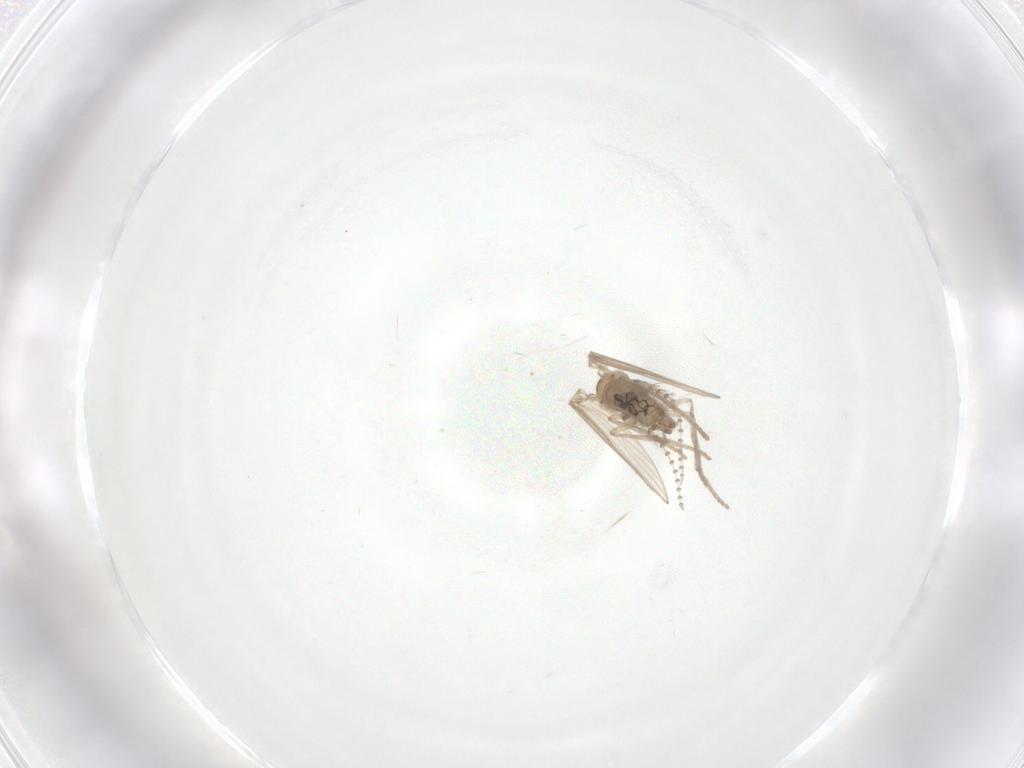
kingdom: Animalia
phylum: Arthropoda
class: Insecta
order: Diptera
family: Psychodidae
